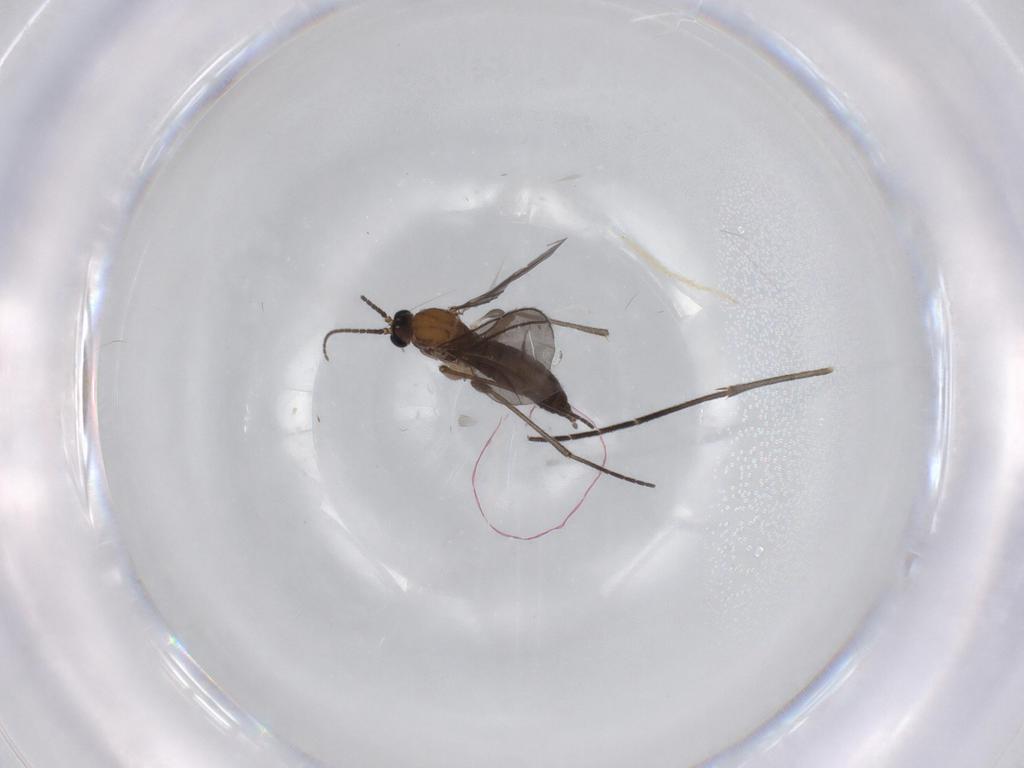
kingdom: Animalia
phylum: Arthropoda
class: Insecta
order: Diptera
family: Sciaridae
